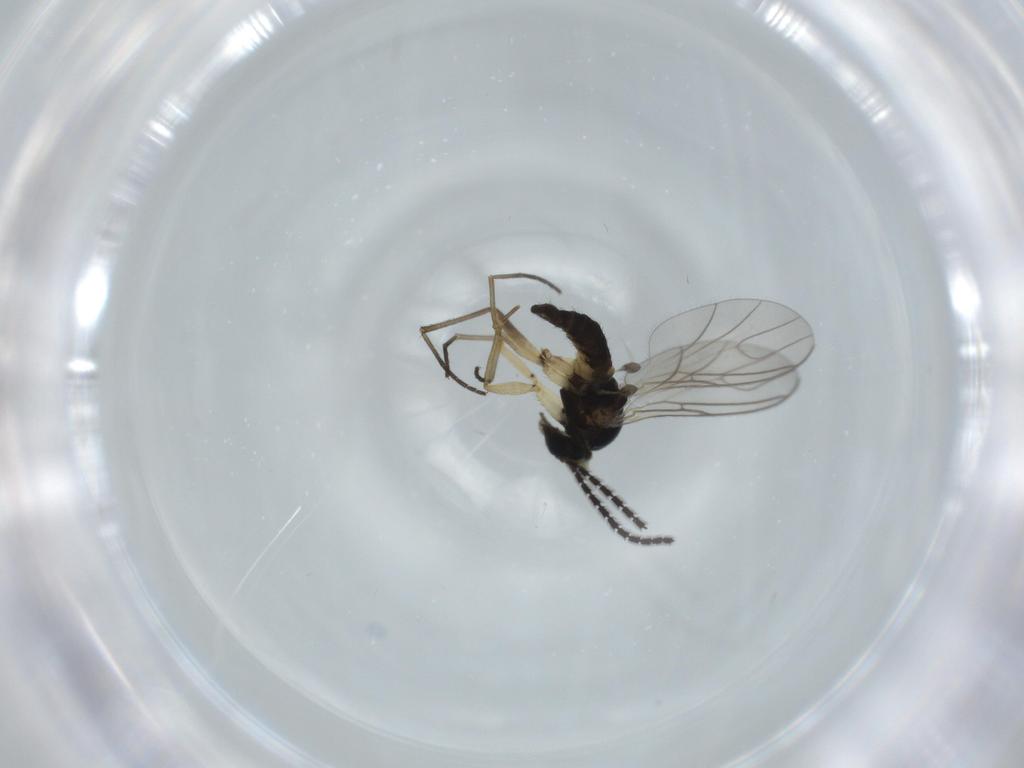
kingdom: Animalia
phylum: Arthropoda
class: Insecta
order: Diptera
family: Sciaridae
